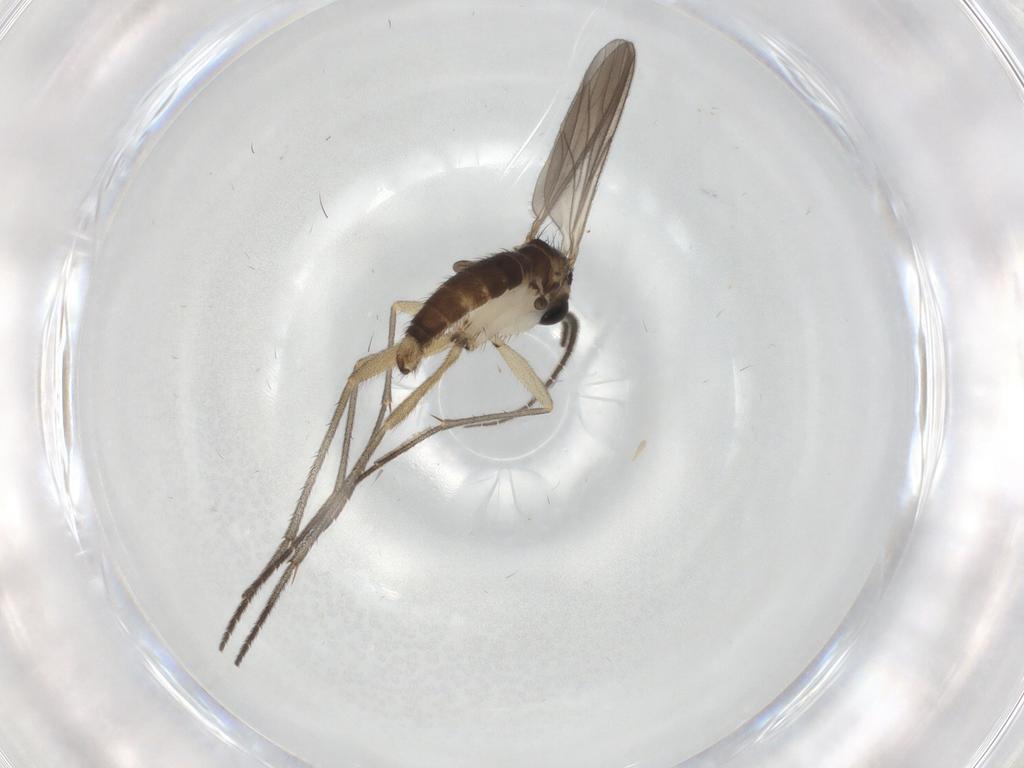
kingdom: Animalia
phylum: Arthropoda
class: Insecta
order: Diptera
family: Sciaridae
